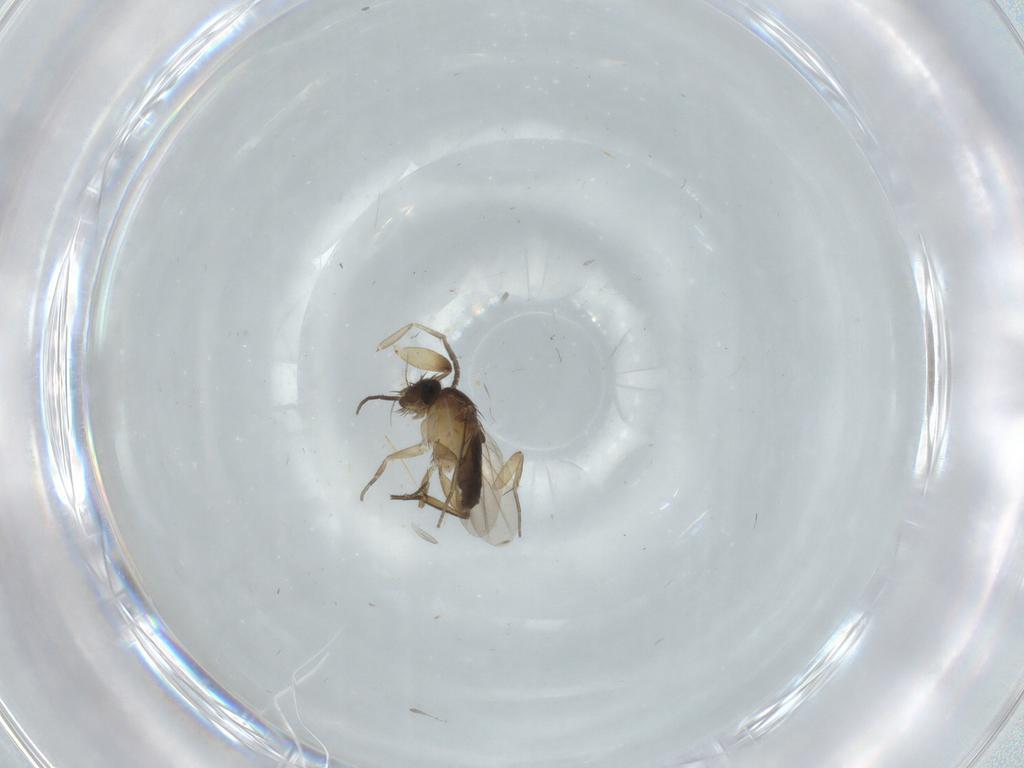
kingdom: Animalia
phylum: Arthropoda
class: Insecta
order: Diptera
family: Phoridae
